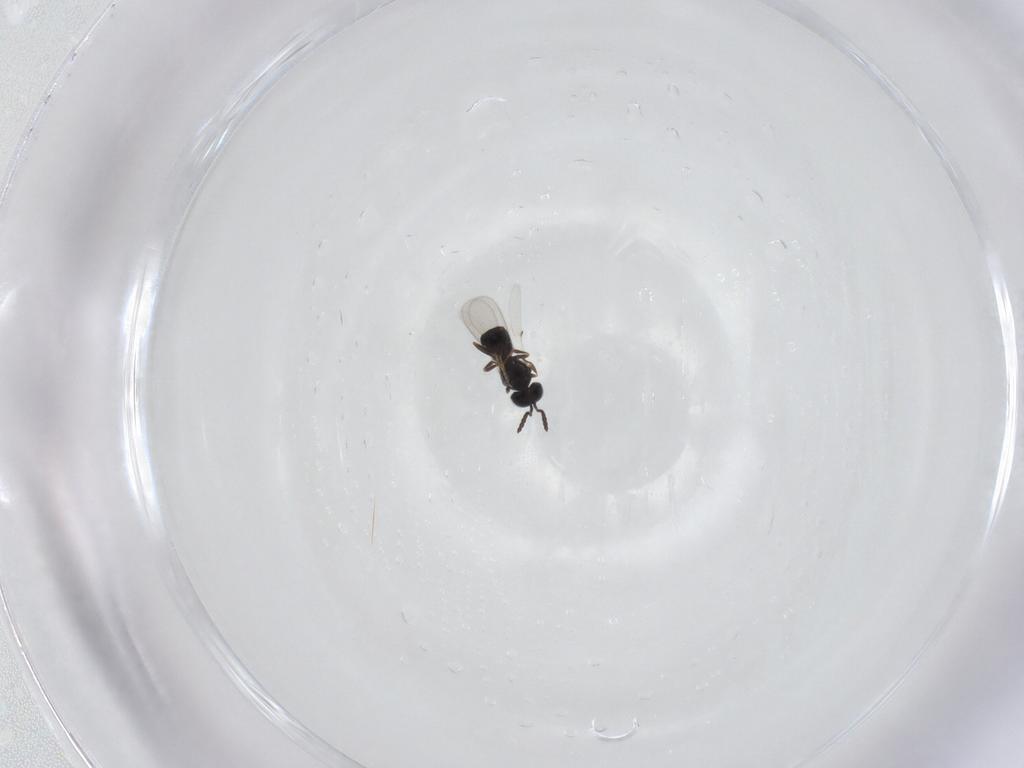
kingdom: Animalia
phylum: Arthropoda
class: Insecta
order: Hymenoptera
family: Scelionidae
